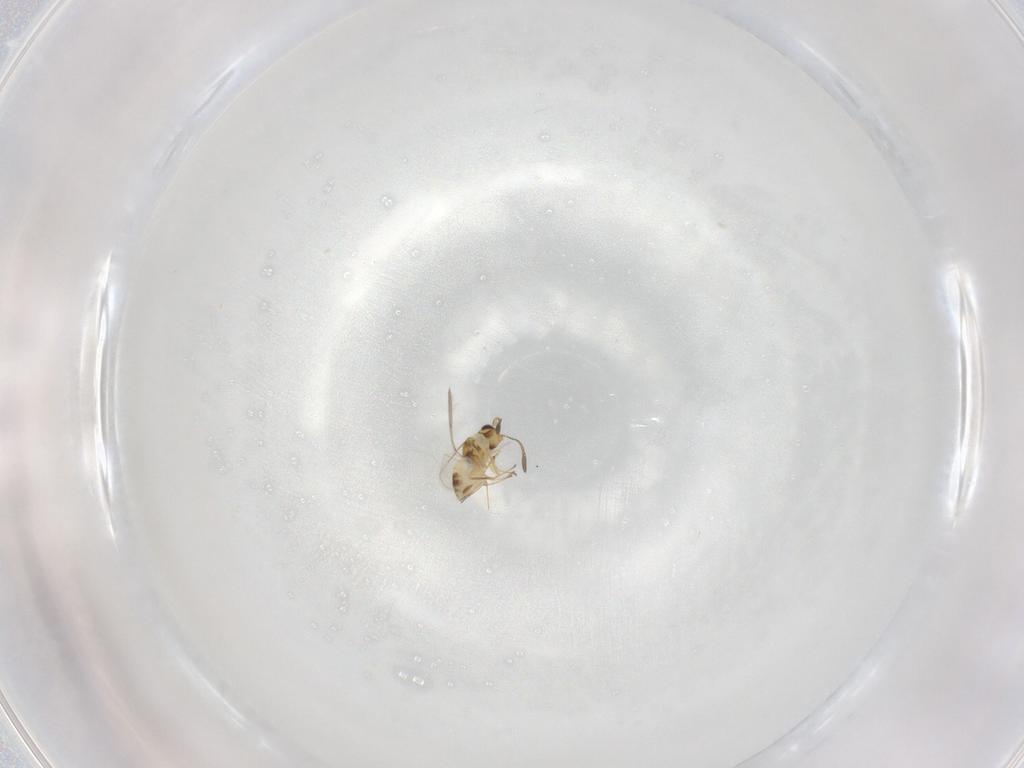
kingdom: Animalia
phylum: Arthropoda
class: Insecta
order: Hymenoptera
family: Mymaridae
